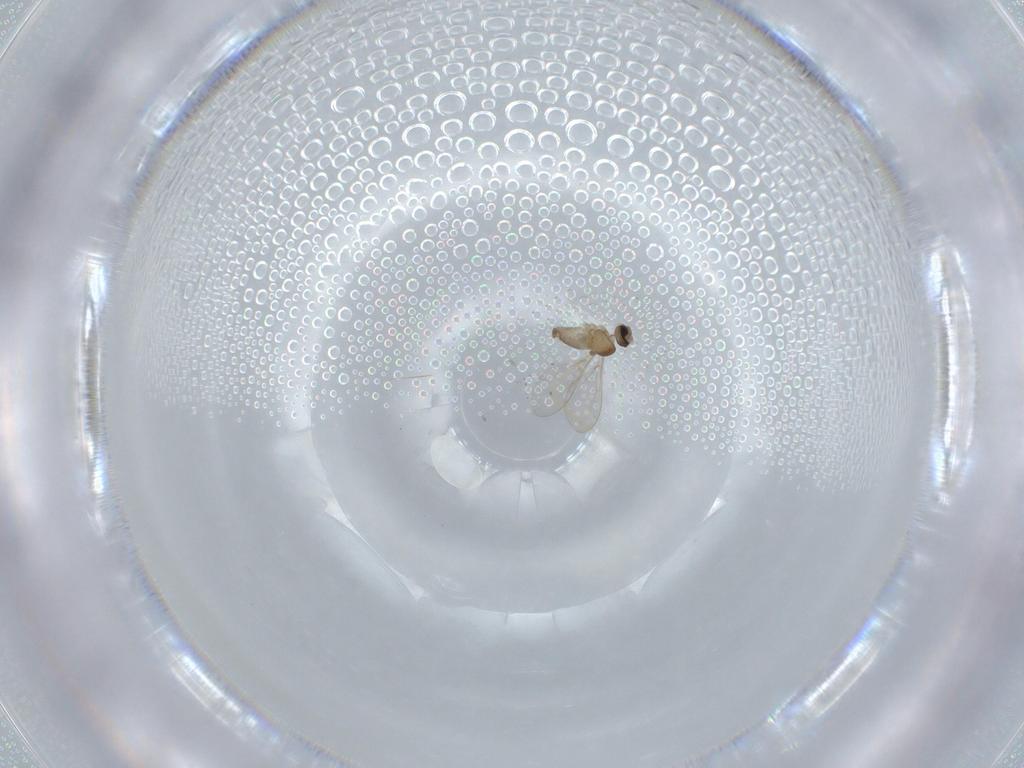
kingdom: Animalia
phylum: Arthropoda
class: Insecta
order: Diptera
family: Cecidomyiidae
